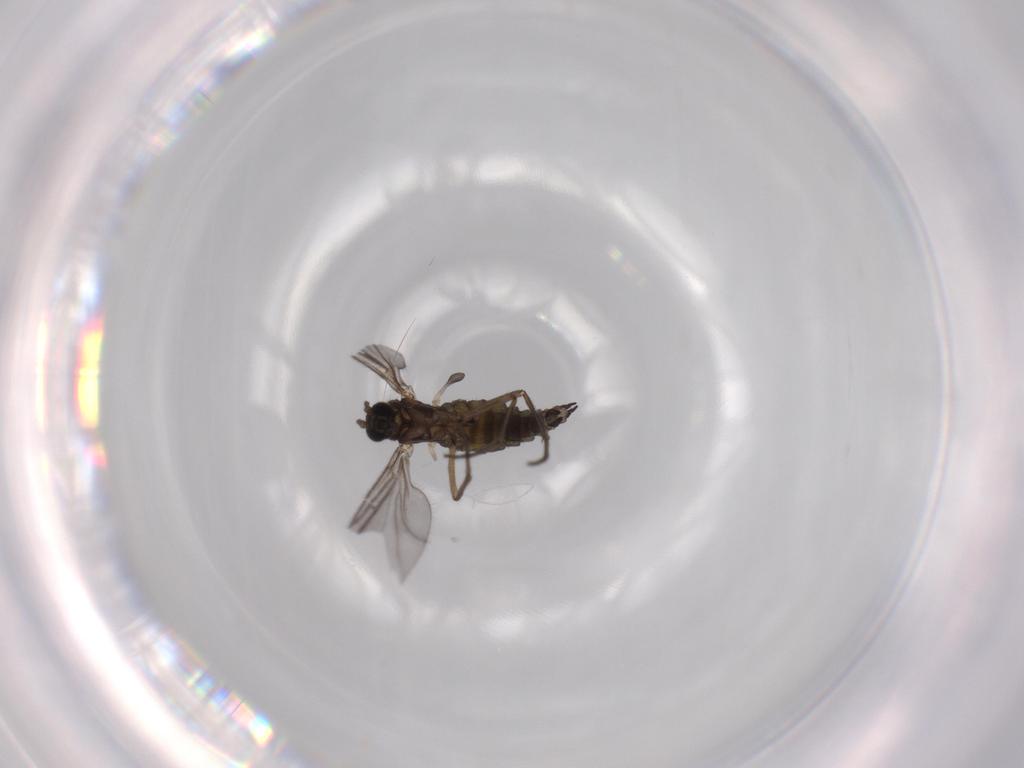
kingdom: Animalia
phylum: Arthropoda
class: Insecta
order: Diptera
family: Sciaridae
